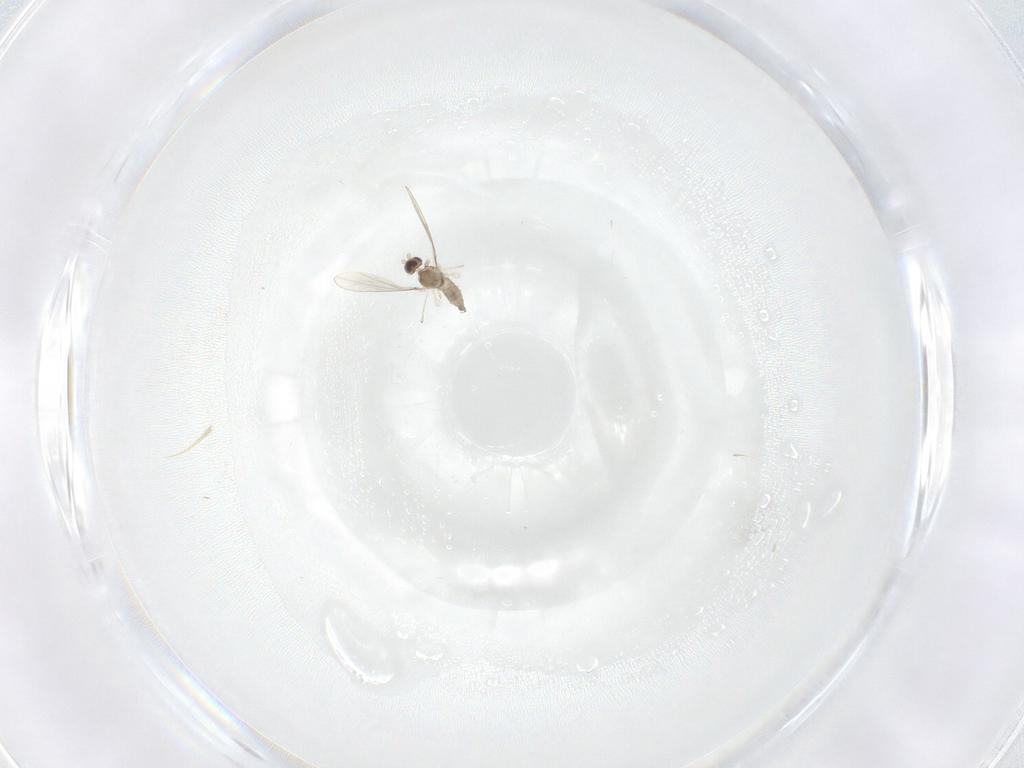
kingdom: Animalia
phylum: Arthropoda
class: Insecta
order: Diptera
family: Cecidomyiidae
